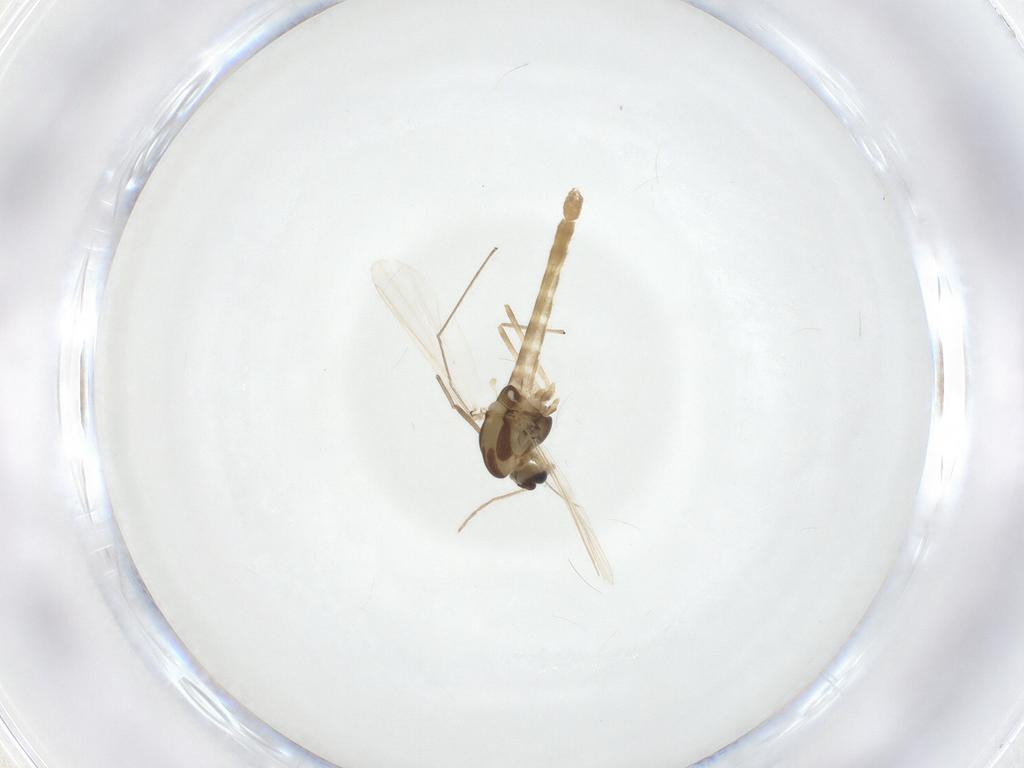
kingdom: Animalia
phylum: Arthropoda
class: Insecta
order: Diptera
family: Chironomidae
